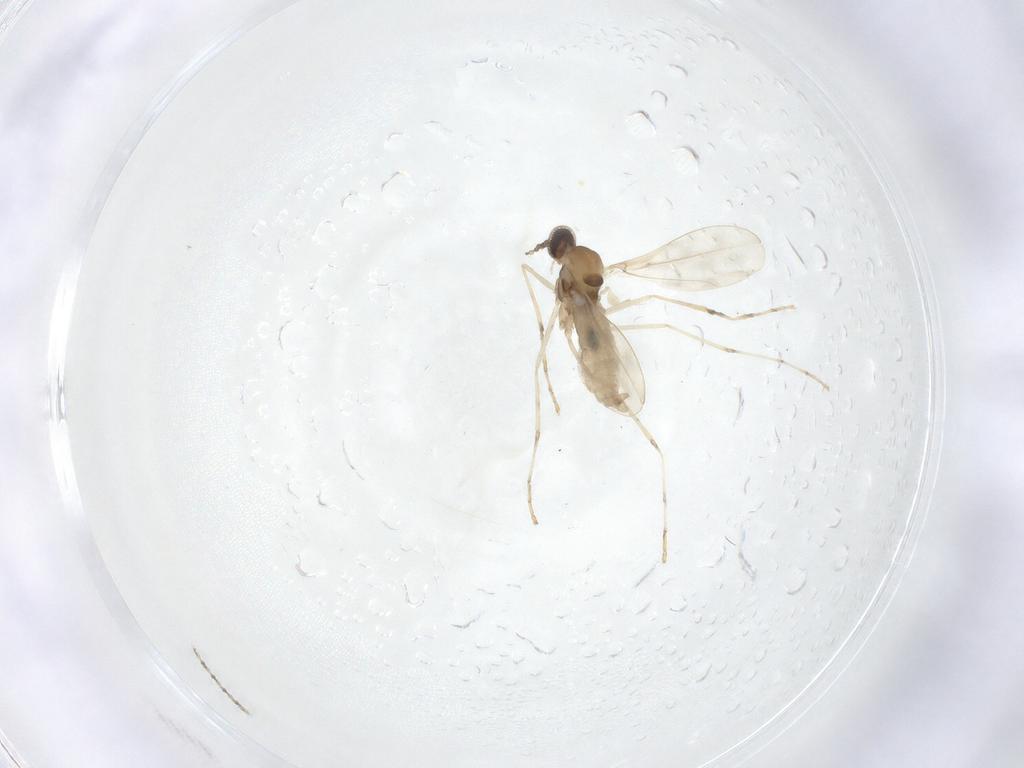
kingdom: Animalia
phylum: Arthropoda
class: Insecta
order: Diptera
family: Cecidomyiidae
